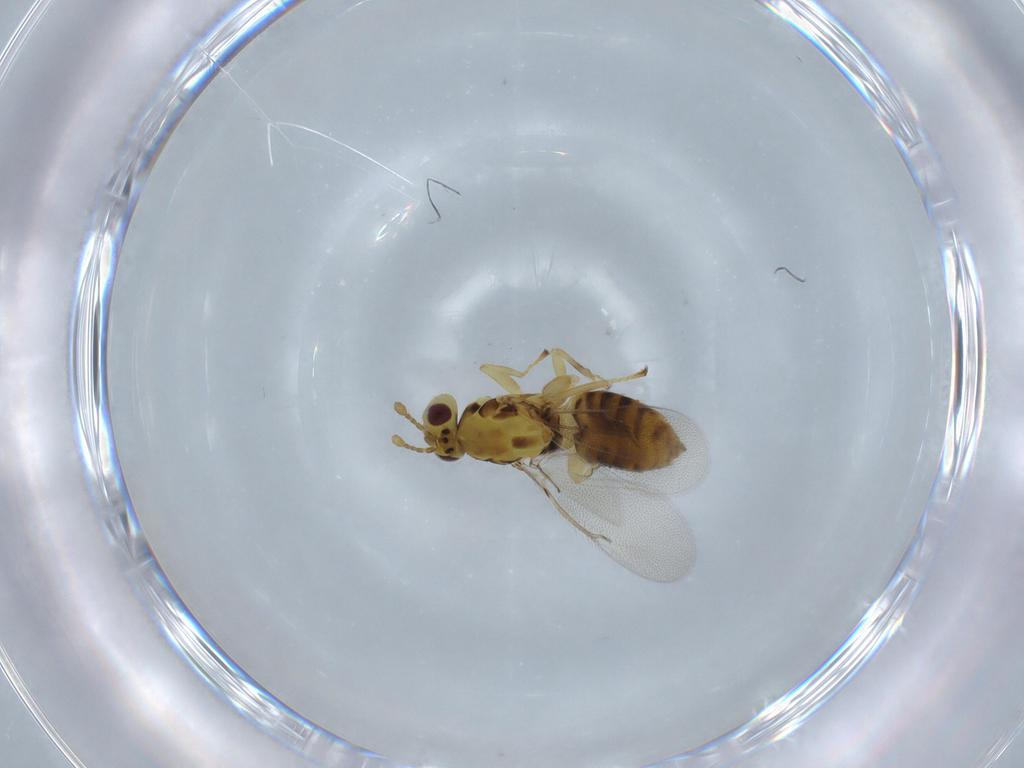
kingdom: Animalia
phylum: Arthropoda
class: Insecta
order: Hymenoptera
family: Eulophidae
